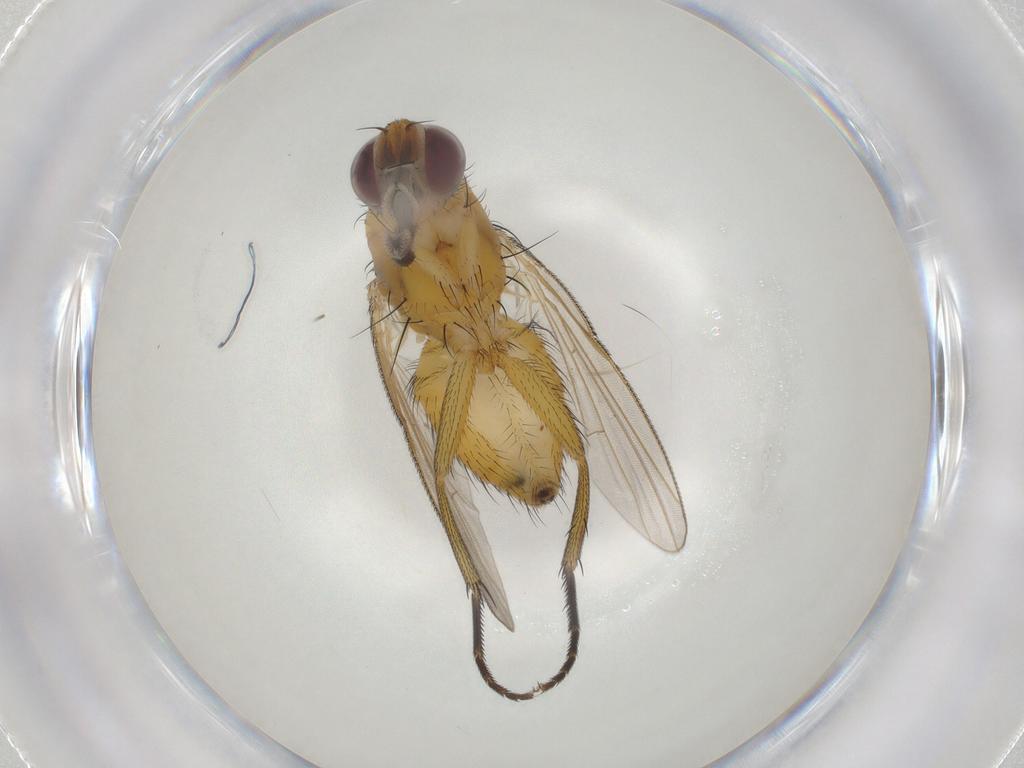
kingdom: Animalia
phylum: Arthropoda
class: Insecta
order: Diptera
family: Muscidae
